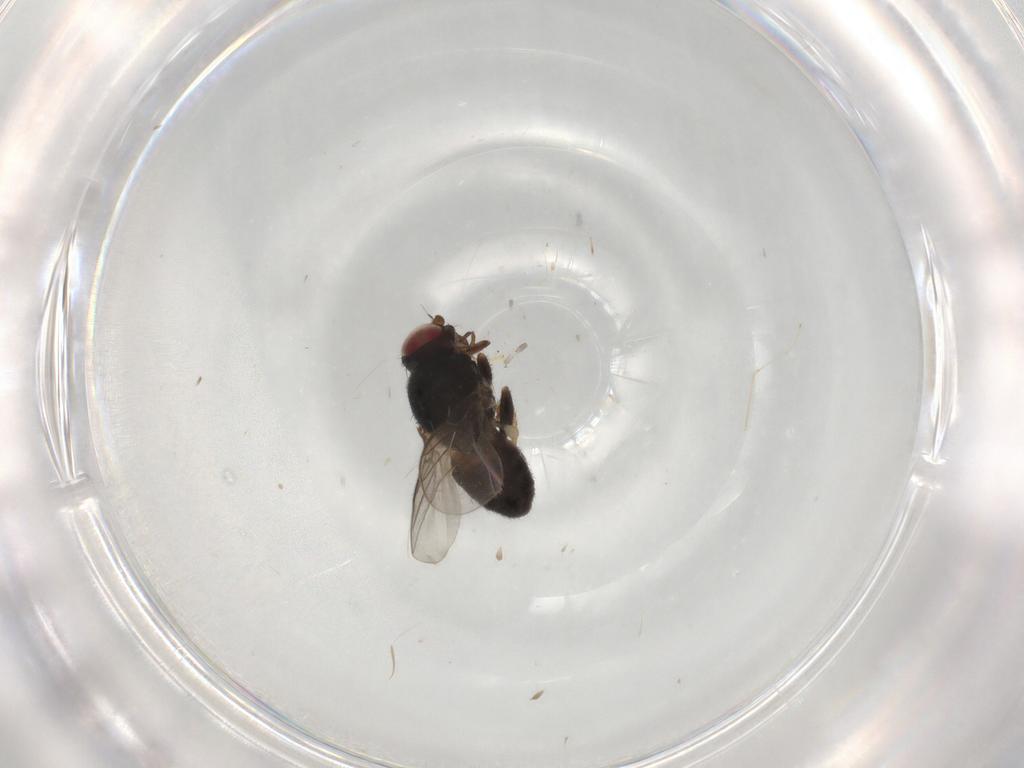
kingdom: Animalia
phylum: Arthropoda
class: Insecta
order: Diptera
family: Chloropidae
